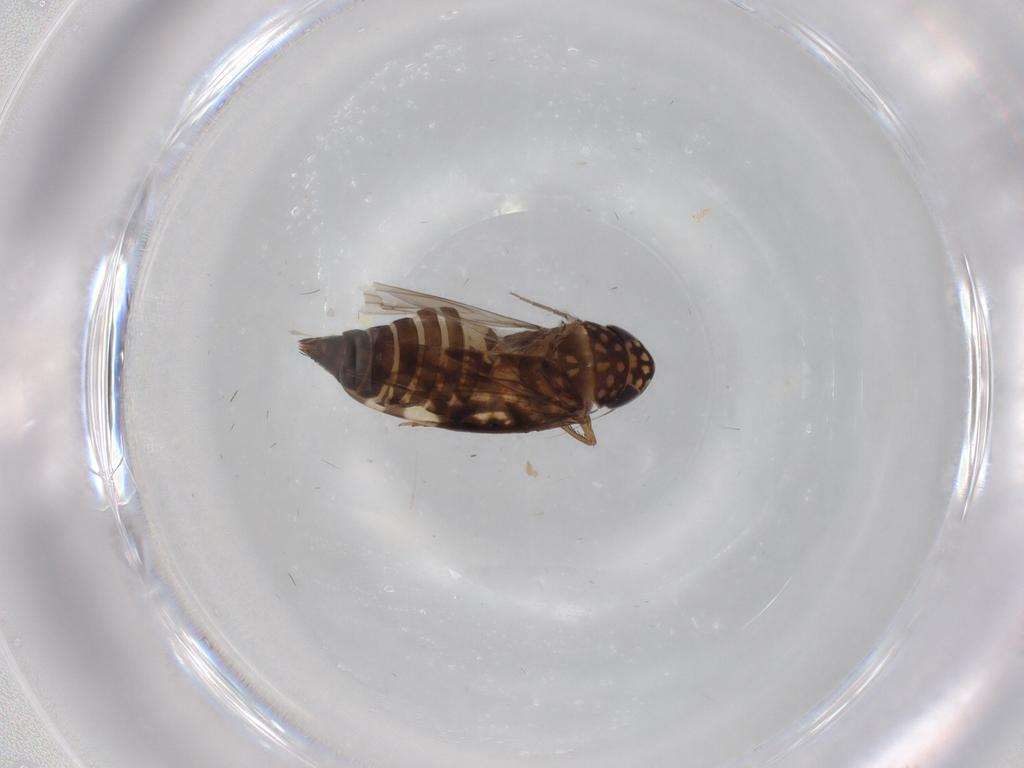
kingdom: Animalia
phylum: Arthropoda
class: Insecta
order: Hemiptera
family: Cicadellidae
